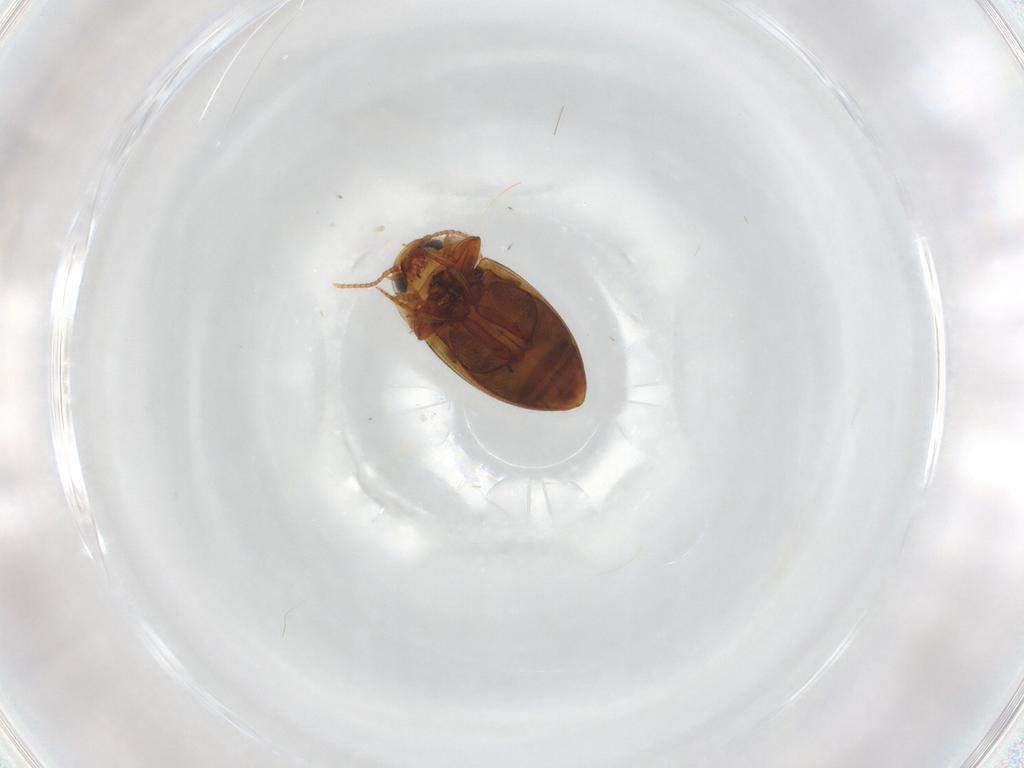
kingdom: Animalia
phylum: Arthropoda
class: Insecta
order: Coleoptera
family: Dytiscidae
